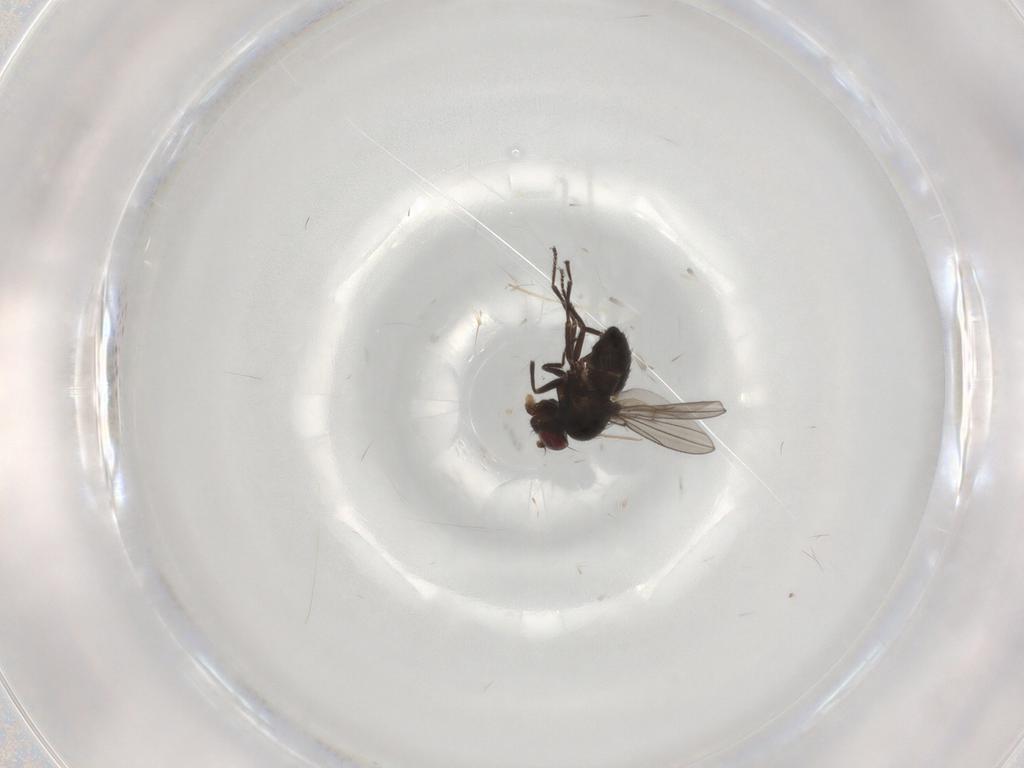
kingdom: Animalia
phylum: Arthropoda
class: Insecta
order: Diptera
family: Ephydridae
